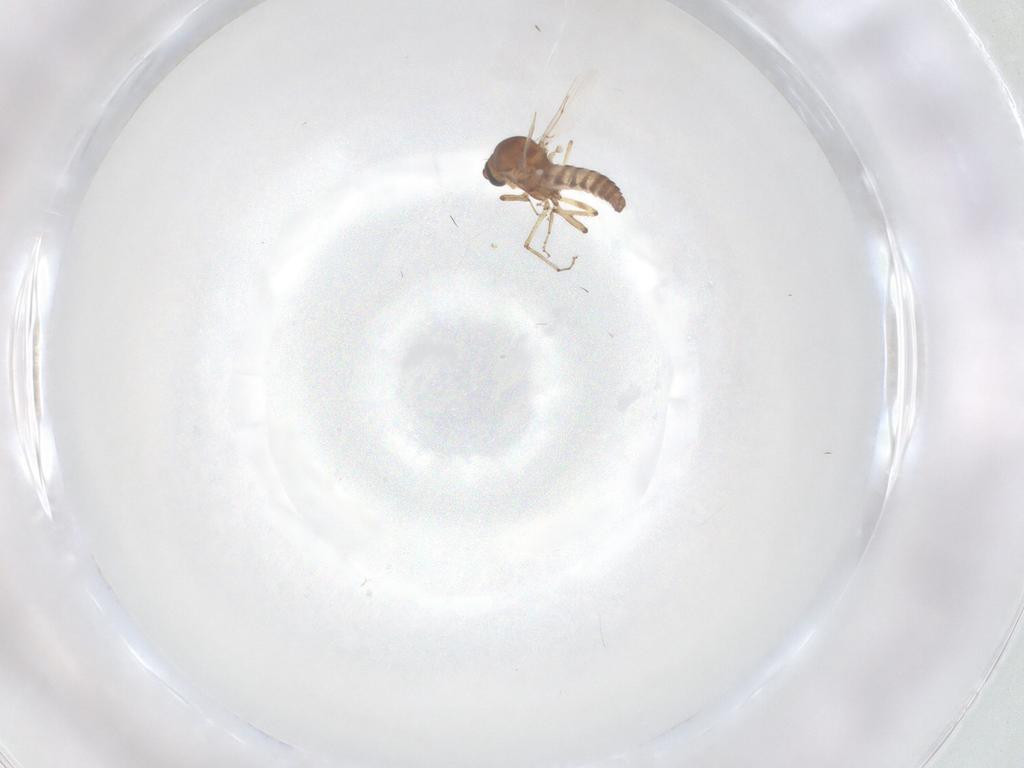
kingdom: Animalia
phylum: Arthropoda
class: Insecta
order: Diptera
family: Ceratopogonidae
